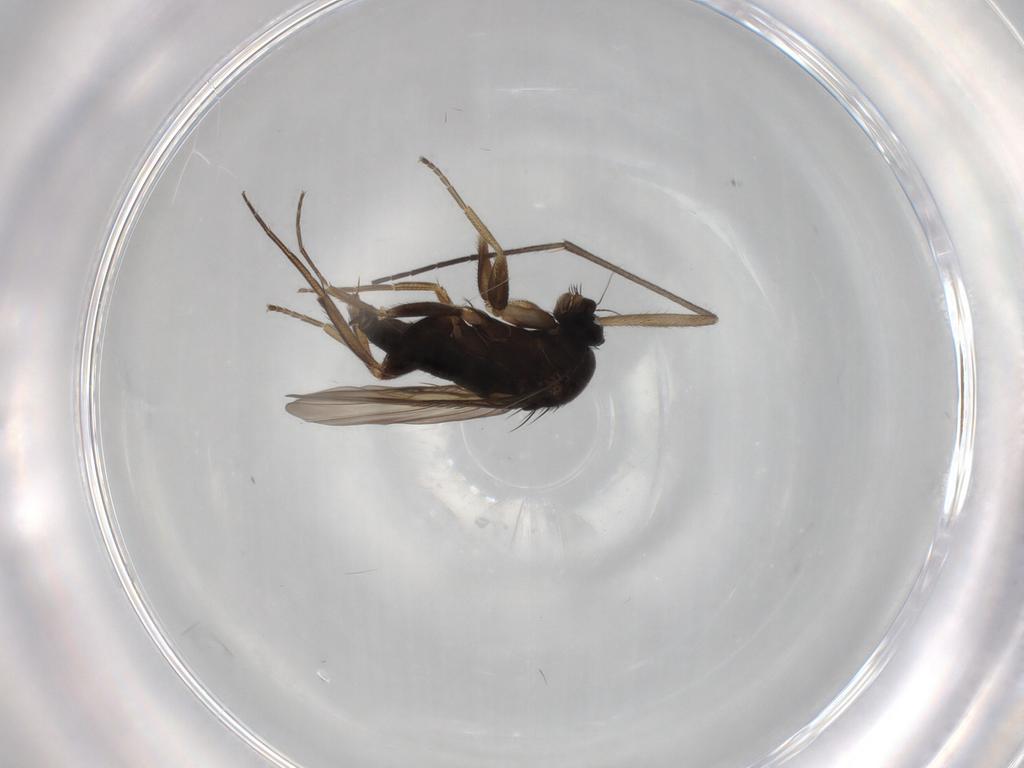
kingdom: Animalia
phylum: Arthropoda
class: Insecta
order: Diptera
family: Phoridae
